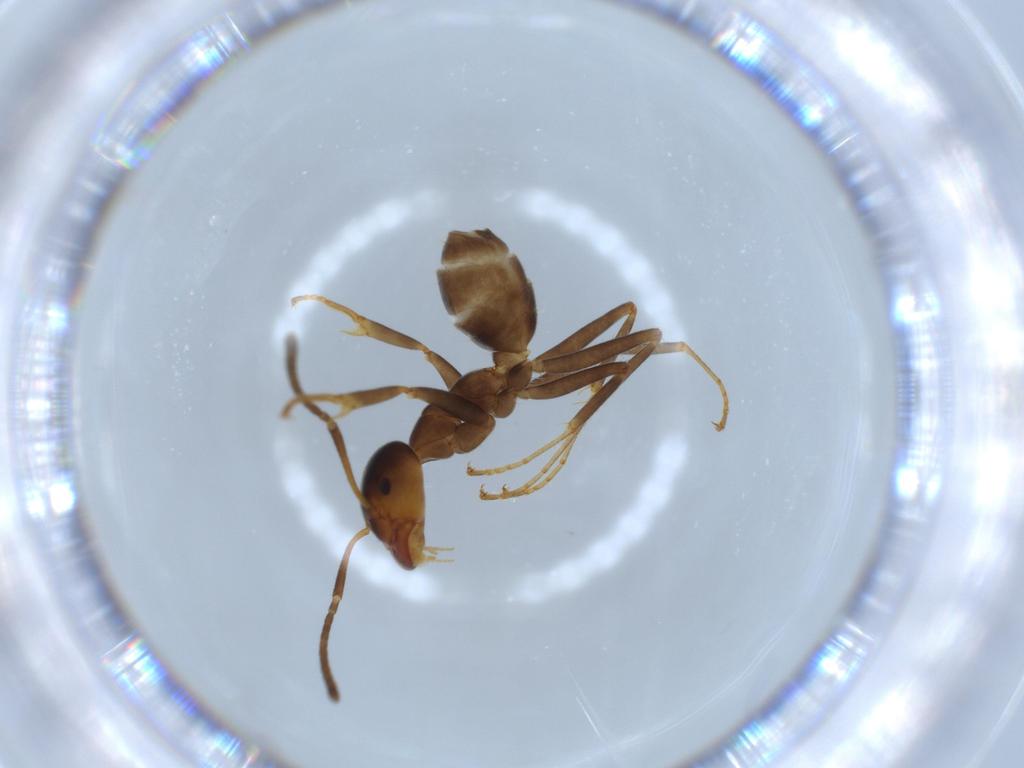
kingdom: Animalia
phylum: Arthropoda
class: Insecta
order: Hymenoptera
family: Formicidae
